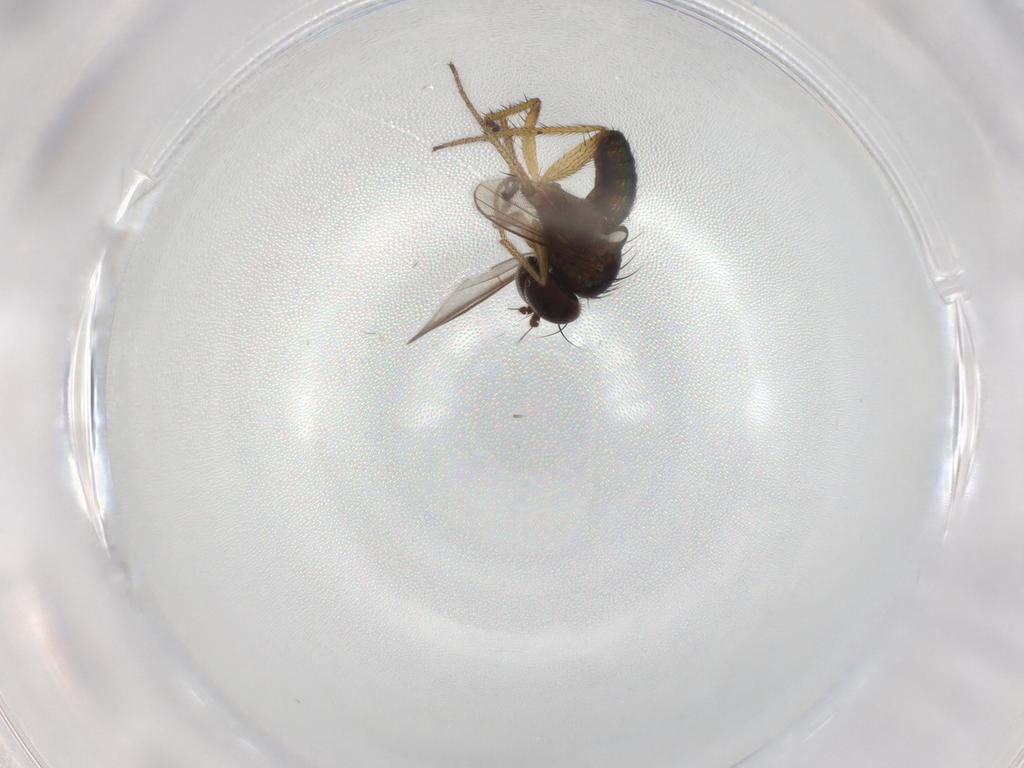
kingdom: Animalia
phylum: Arthropoda
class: Insecta
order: Diptera
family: Dolichopodidae
